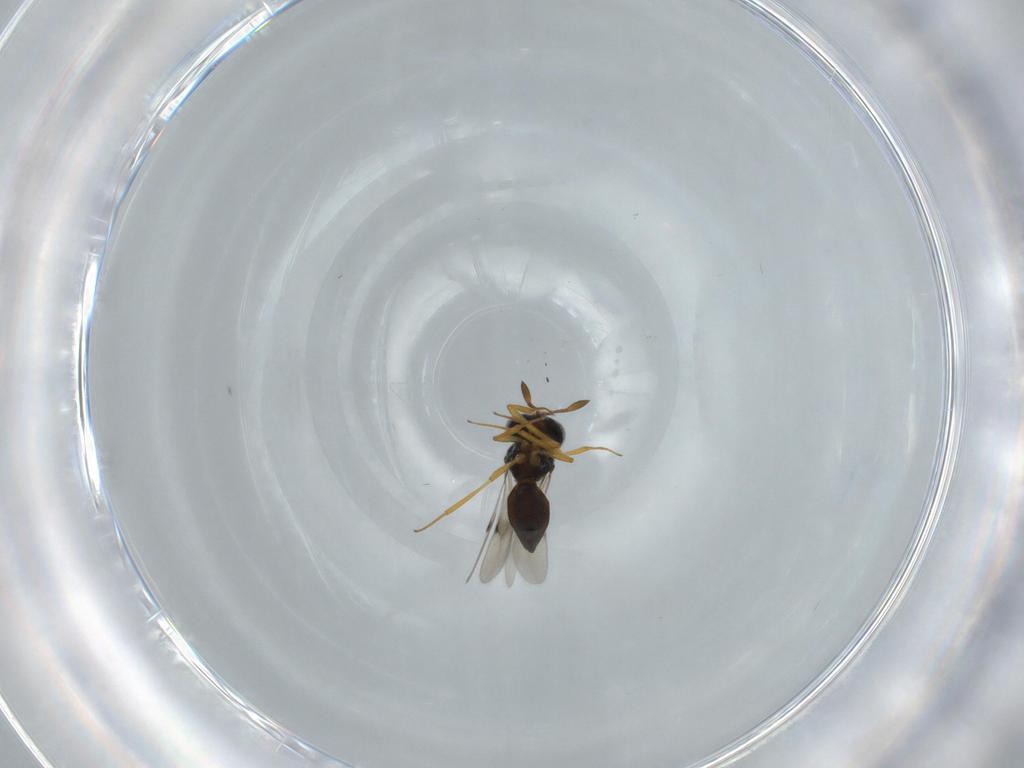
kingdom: Animalia
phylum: Arthropoda
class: Insecta
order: Hymenoptera
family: Scelionidae
